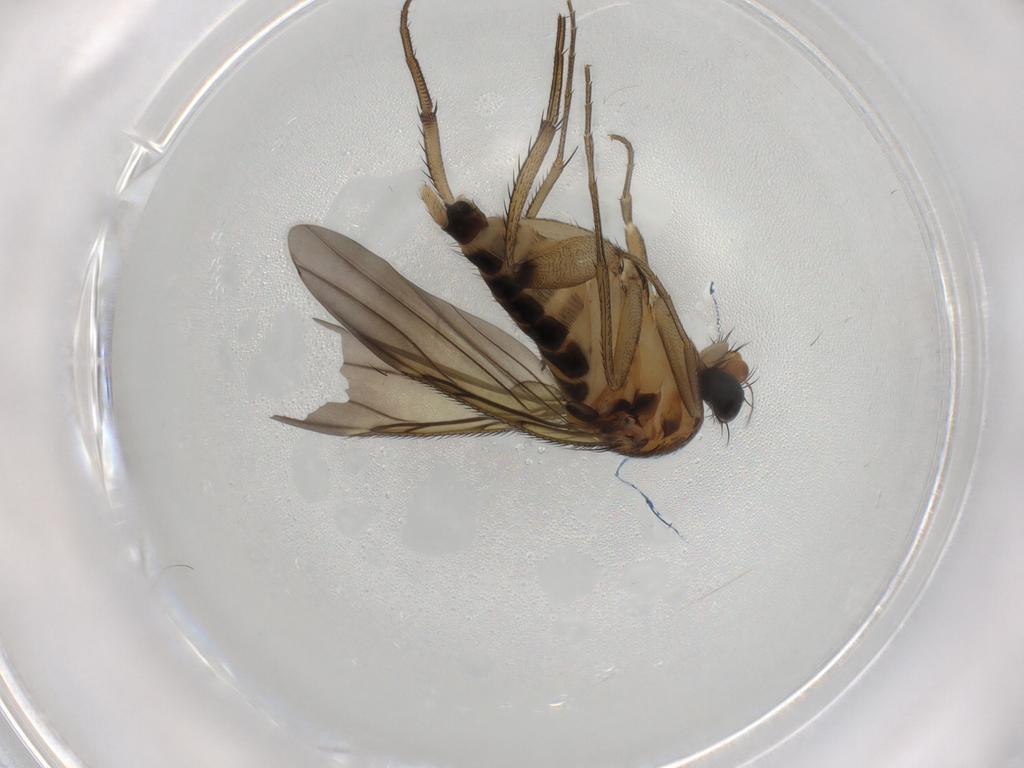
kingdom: Animalia
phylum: Arthropoda
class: Insecta
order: Diptera
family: Phoridae
